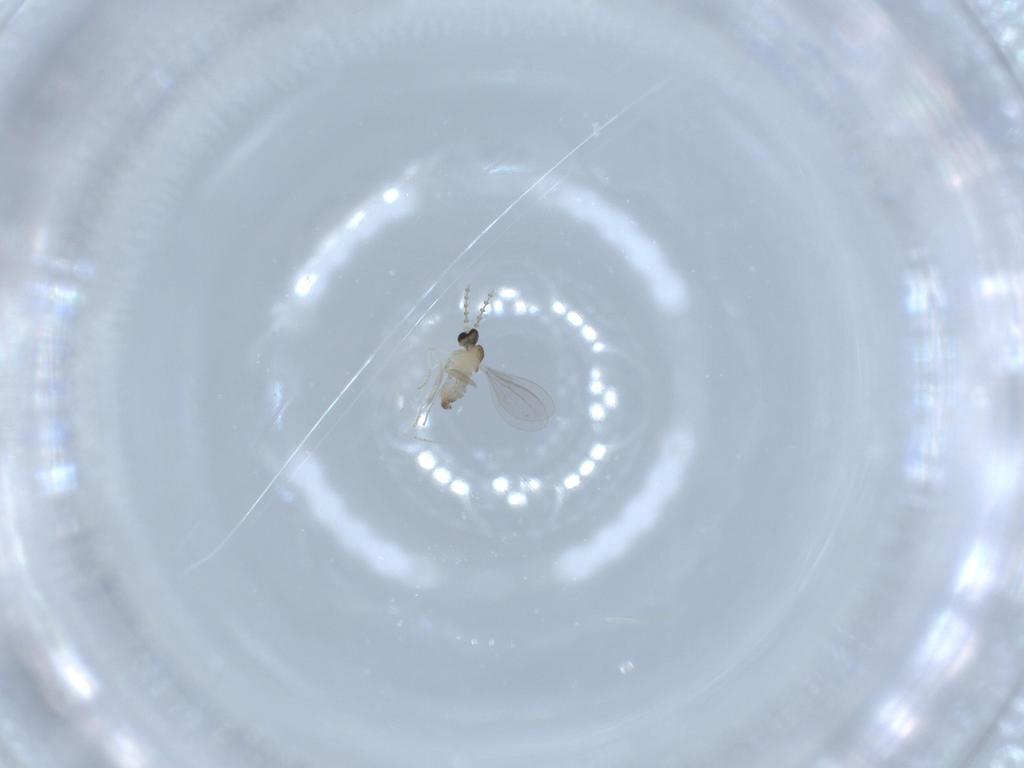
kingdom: Animalia
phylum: Arthropoda
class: Insecta
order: Diptera
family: Cecidomyiidae
